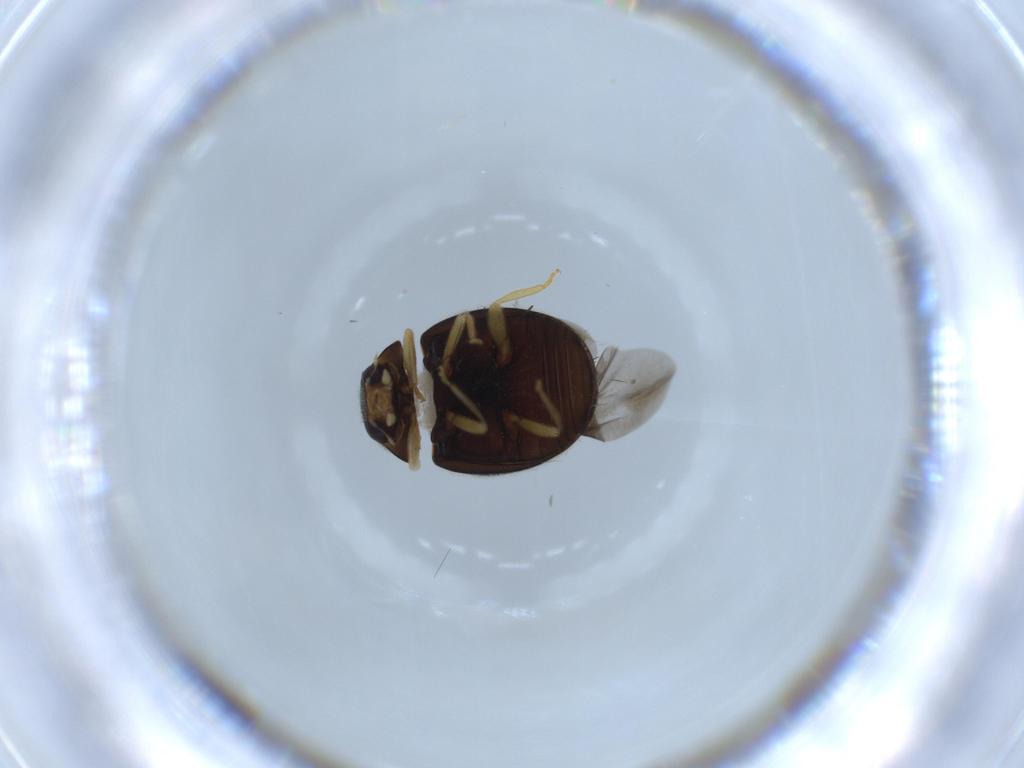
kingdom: Animalia
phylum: Arthropoda
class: Insecta
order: Coleoptera
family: Coccinellidae
